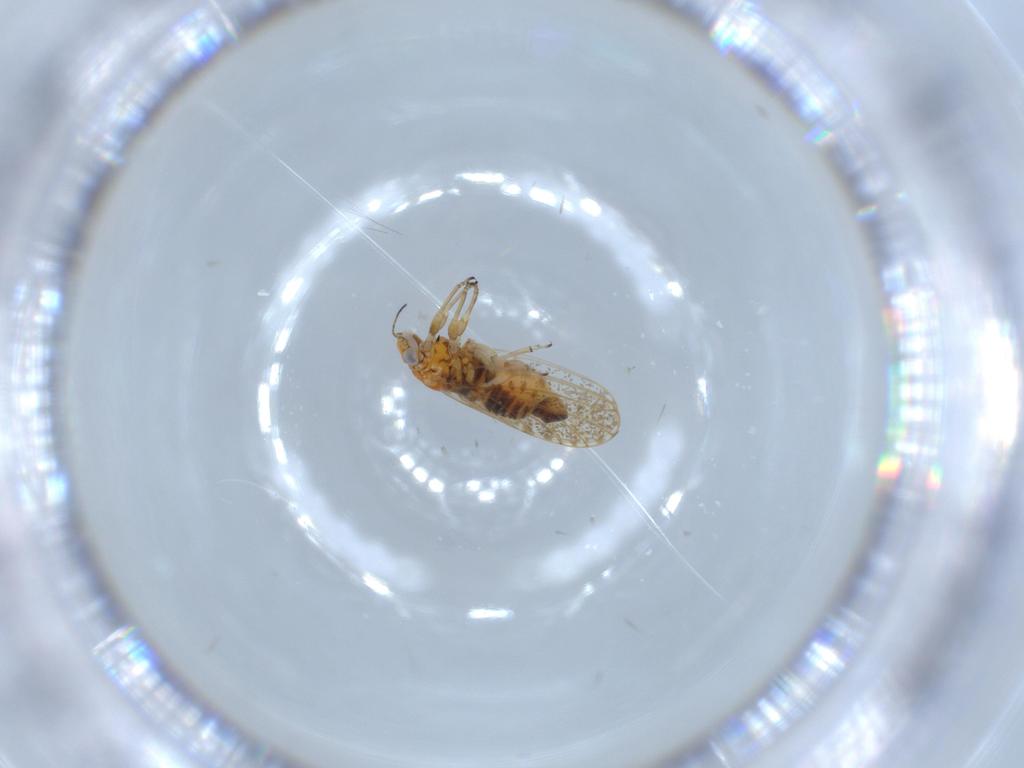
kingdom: Animalia
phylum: Arthropoda
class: Insecta
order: Hemiptera
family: Psyllidae
